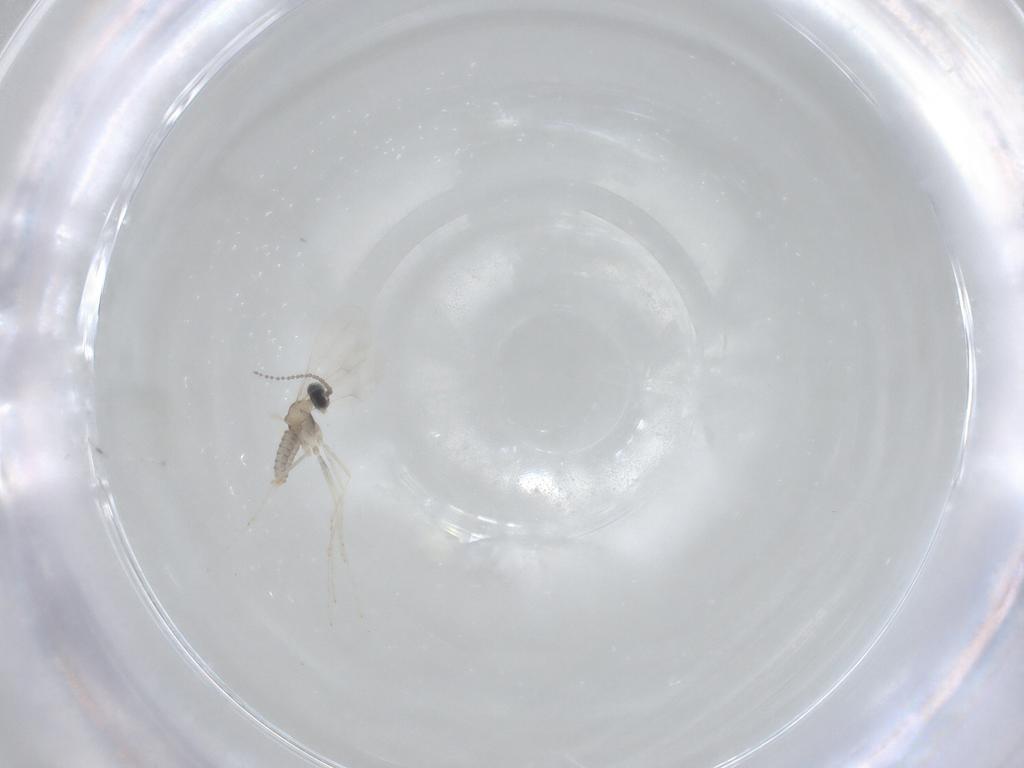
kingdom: Animalia
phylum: Arthropoda
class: Insecta
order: Diptera
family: Cecidomyiidae
